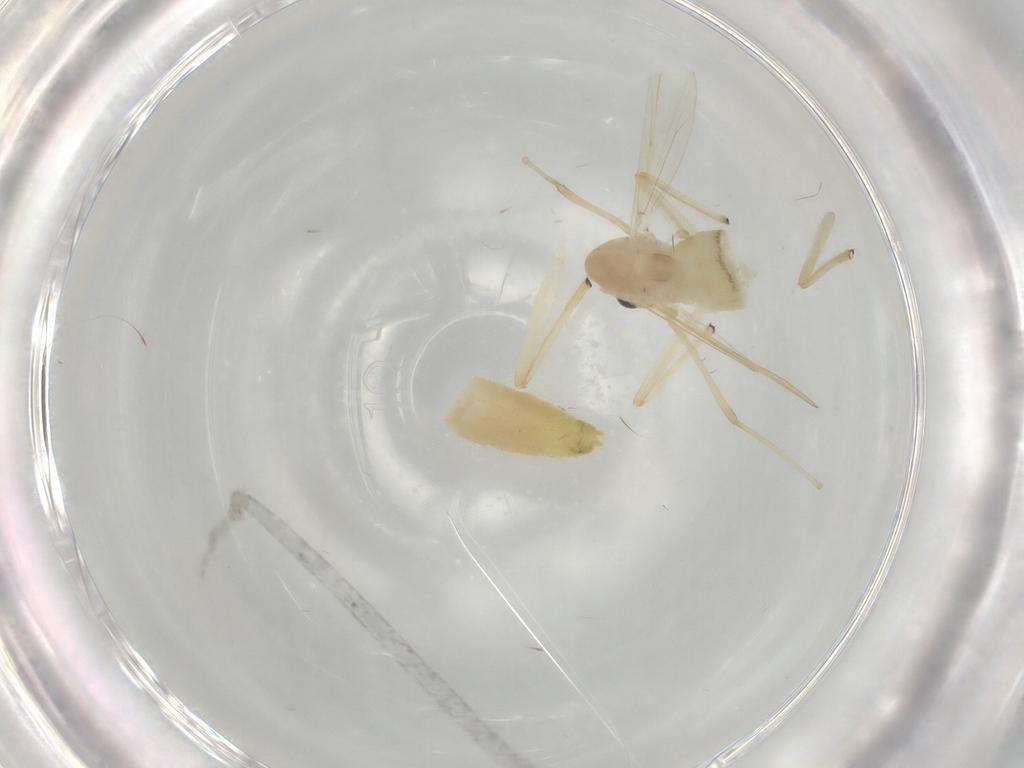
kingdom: Animalia
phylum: Arthropoda
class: Insecta
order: Diptera
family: Chironomidae
